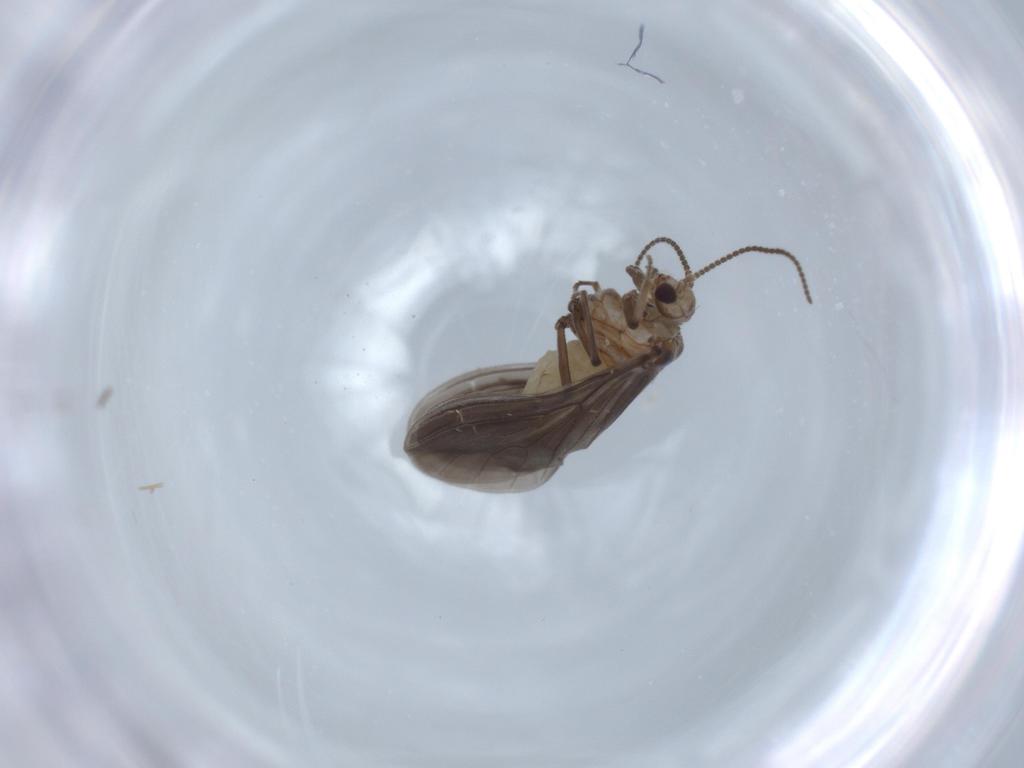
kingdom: Animalia
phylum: Arthropoda
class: Insecta
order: Neuroptera
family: Coniopterygidae
